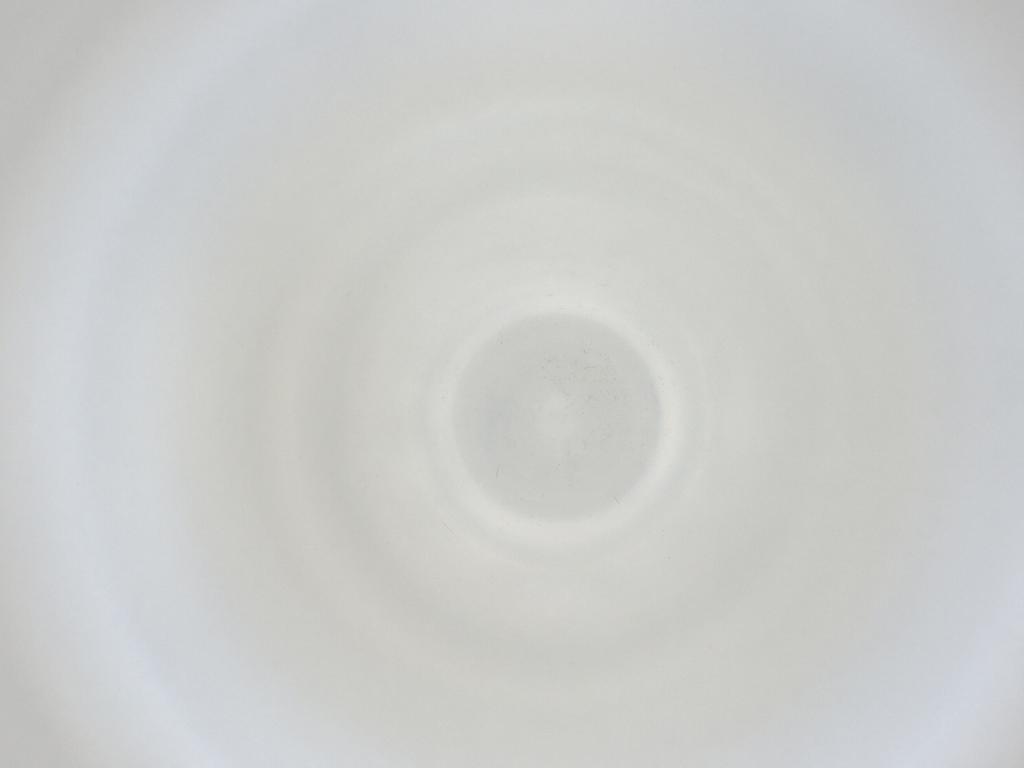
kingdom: Animalia
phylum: Arthropoda
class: Insecta
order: Diptera
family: Cecidomyiidae
